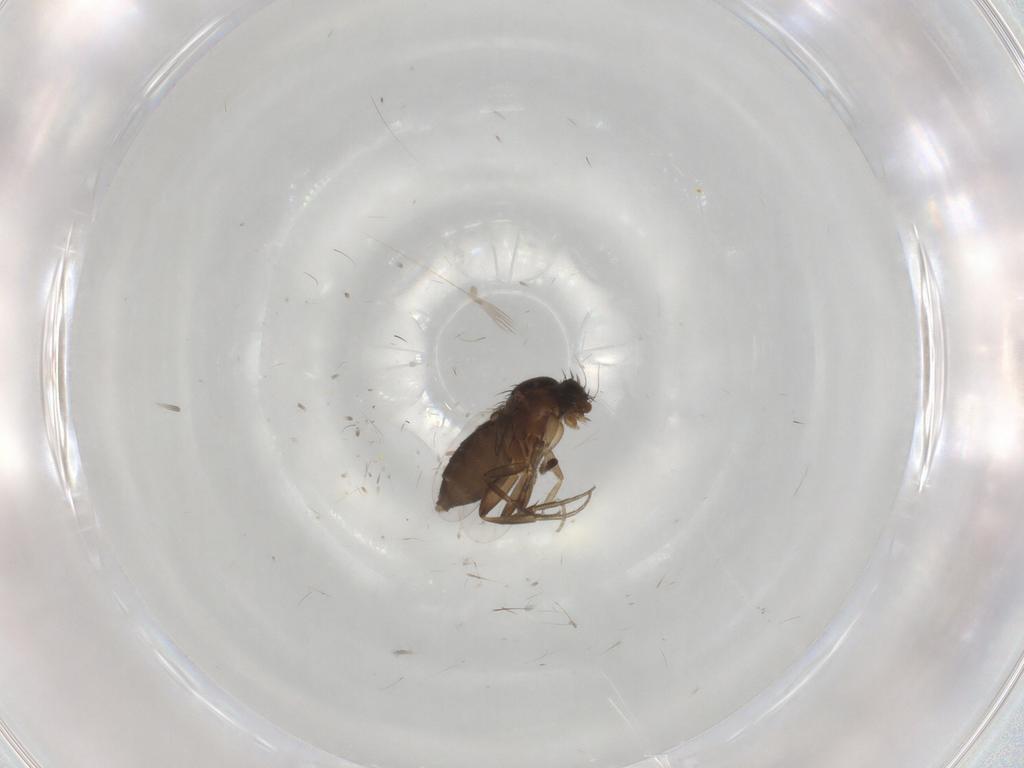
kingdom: Animalia
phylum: Arthropoda
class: Insecta
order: Diptera
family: Phoridae
